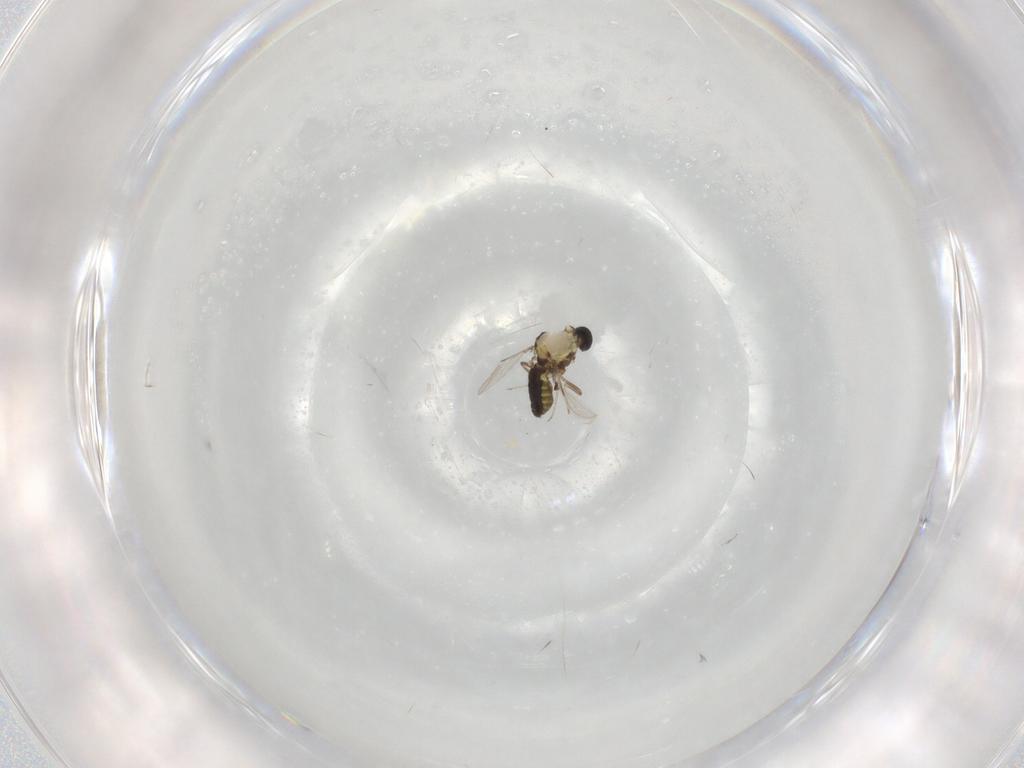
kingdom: Animalia
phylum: Arthropoda
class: Insecta
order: Diptera
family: Ceratopogonidae
